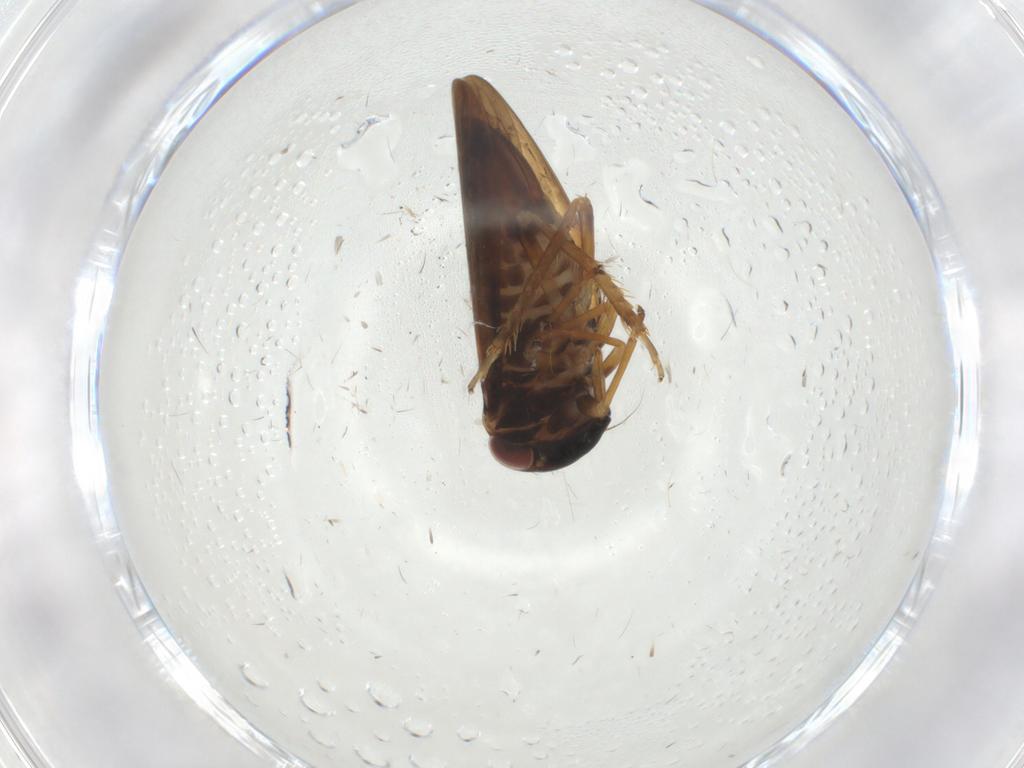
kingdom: Animalia
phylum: Arthropoda
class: Insecta
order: Hemiptera
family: Cicadellidae
